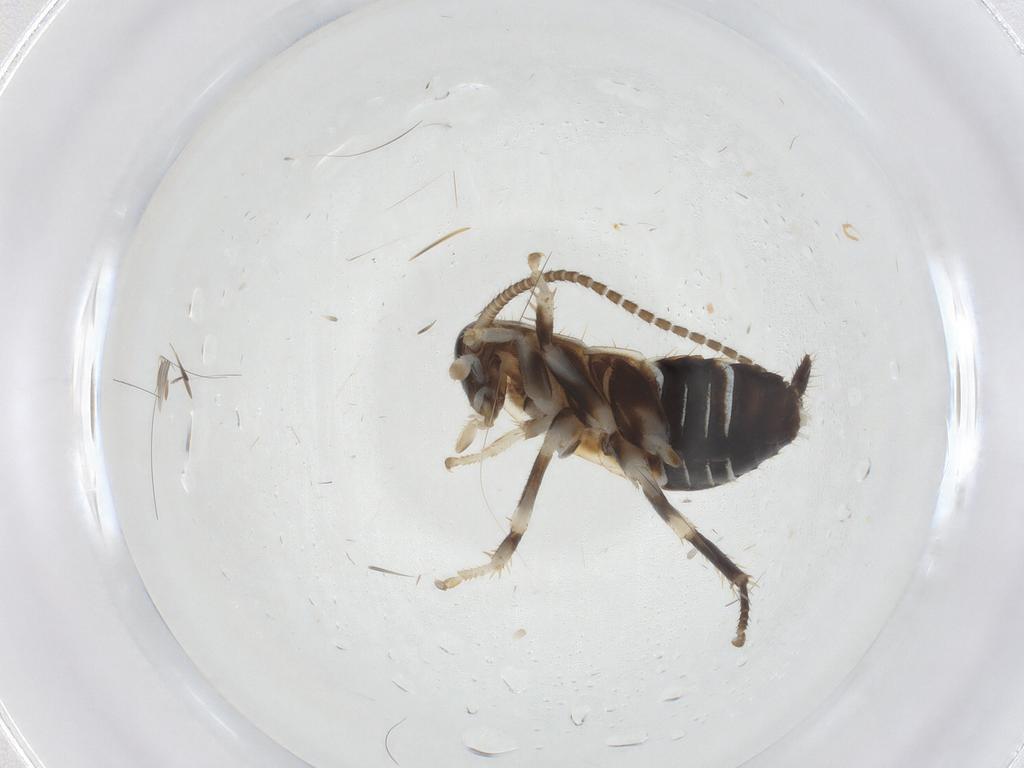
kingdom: Animalia
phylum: Arthropoda
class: Insecta
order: Blattodea
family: Ectobiidae
